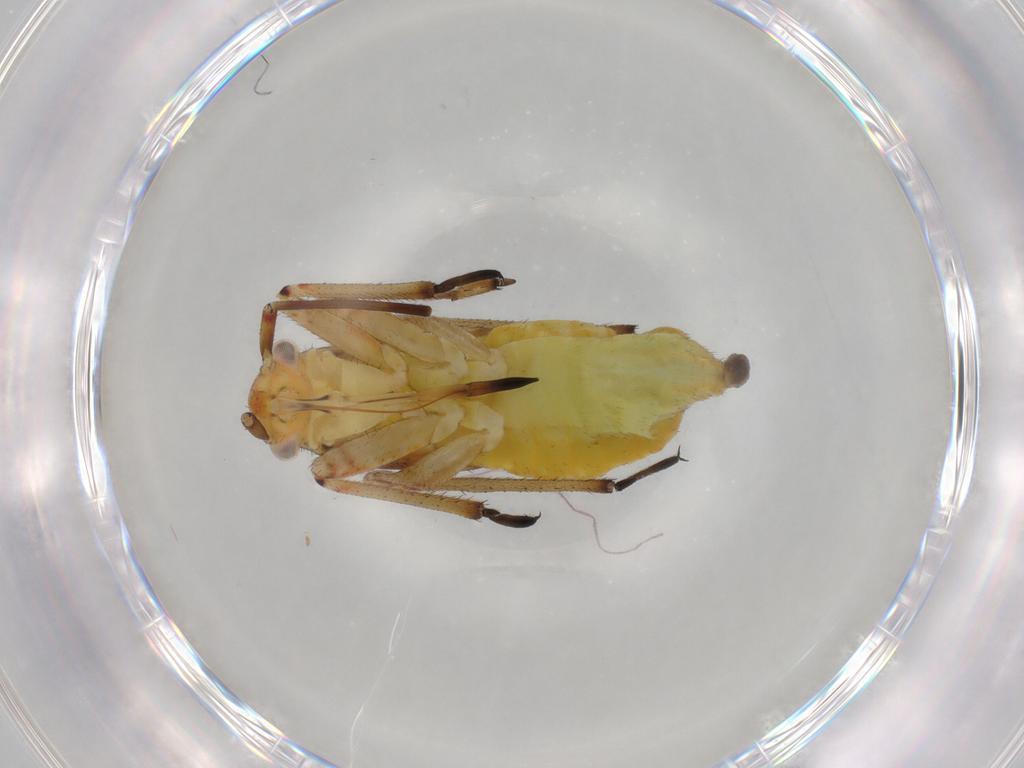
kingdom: Animalia
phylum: Arthropoda
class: Insecta
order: Hemiptera
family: Miridae
